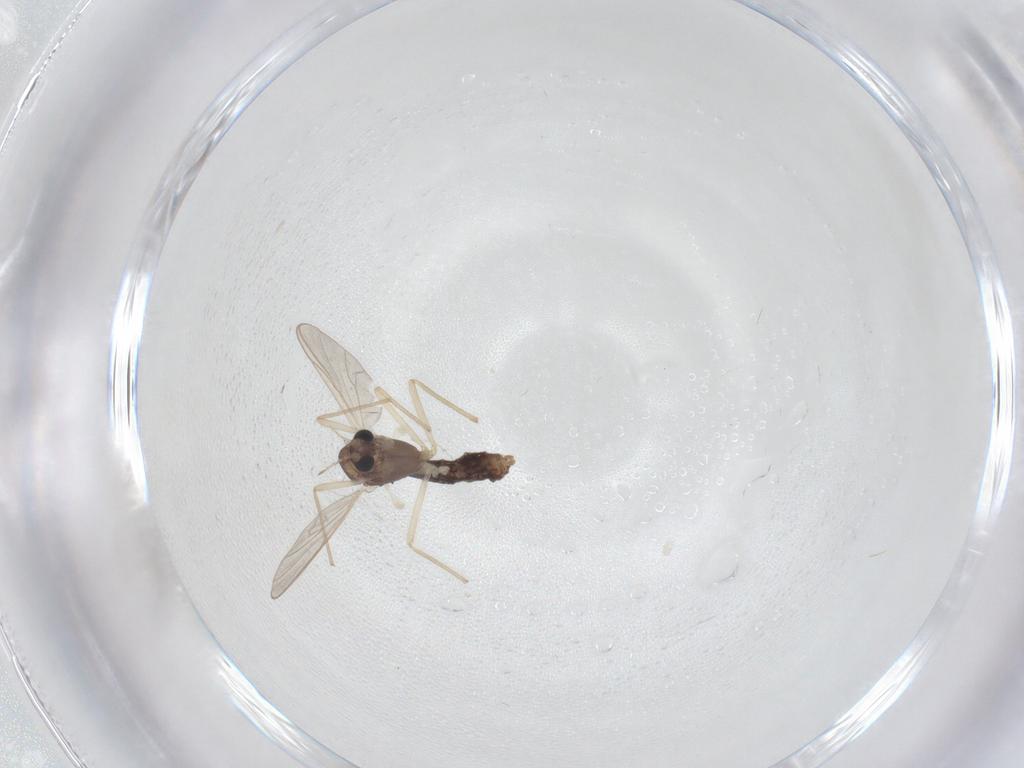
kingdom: Animalia
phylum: Arthropoda
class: Insecta
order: Diptera
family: Chironomidae
